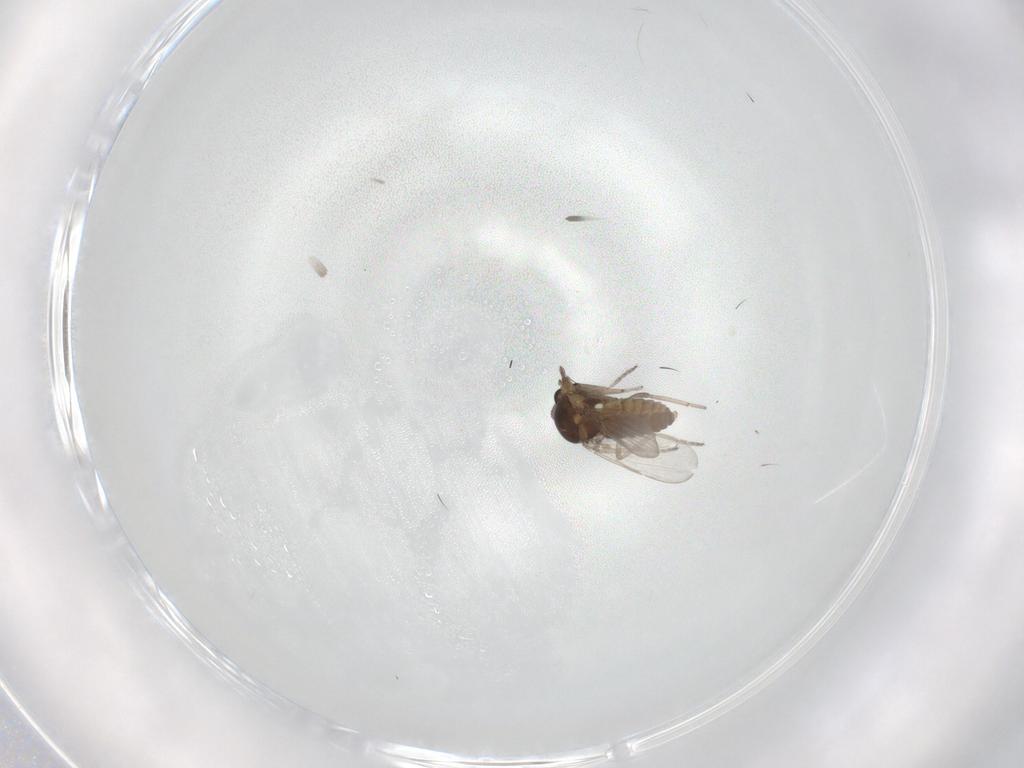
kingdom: Animalia
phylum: Arthropoda
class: Insecta
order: Diptera
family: Ceratopogonidae
